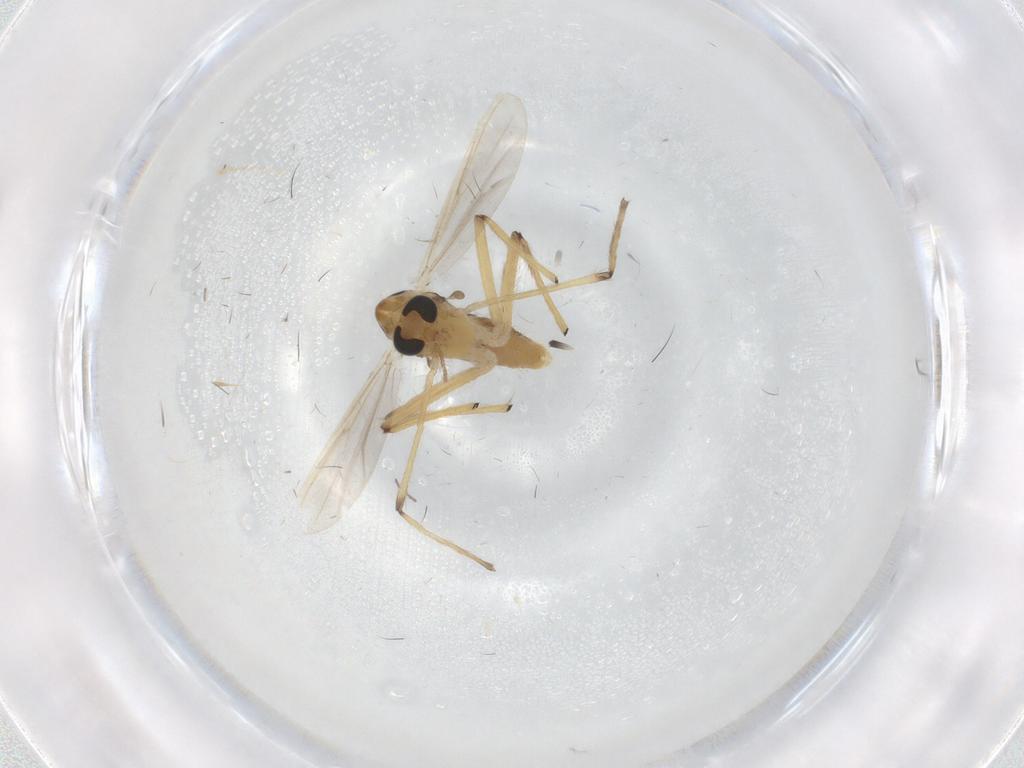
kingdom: Animalia
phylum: Arthropoda
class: Insecta
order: Diptera
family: Chironomidae
